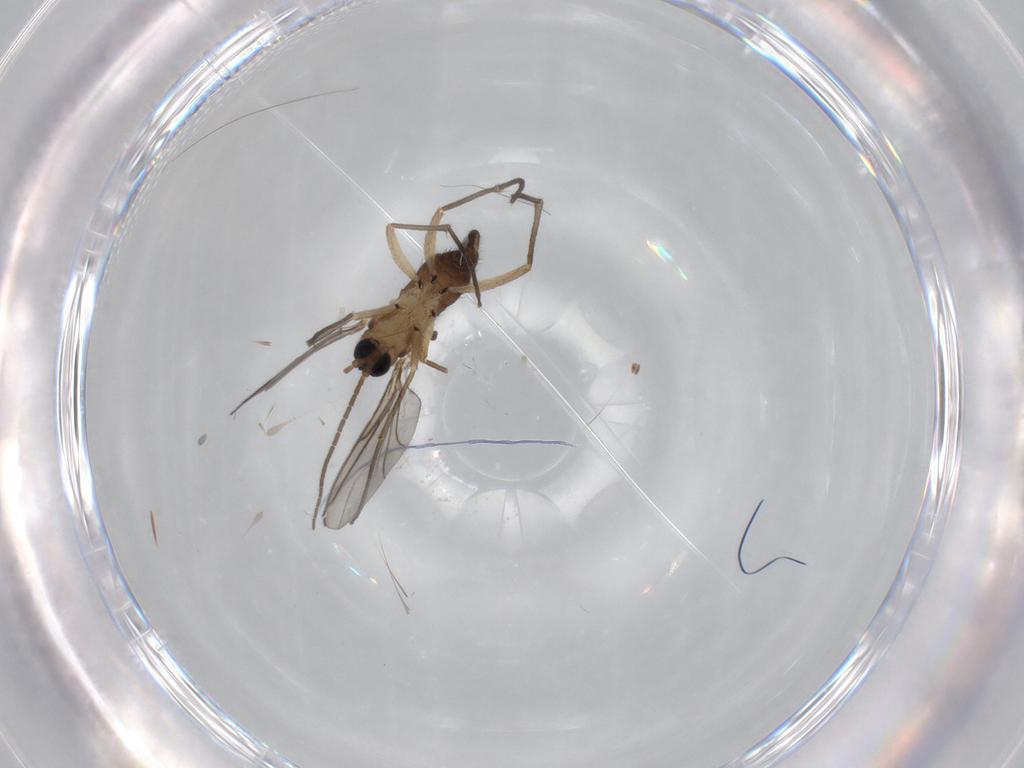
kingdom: Animalia
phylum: Arthropoda
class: Insecta
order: Diptera
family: Sciaridae
